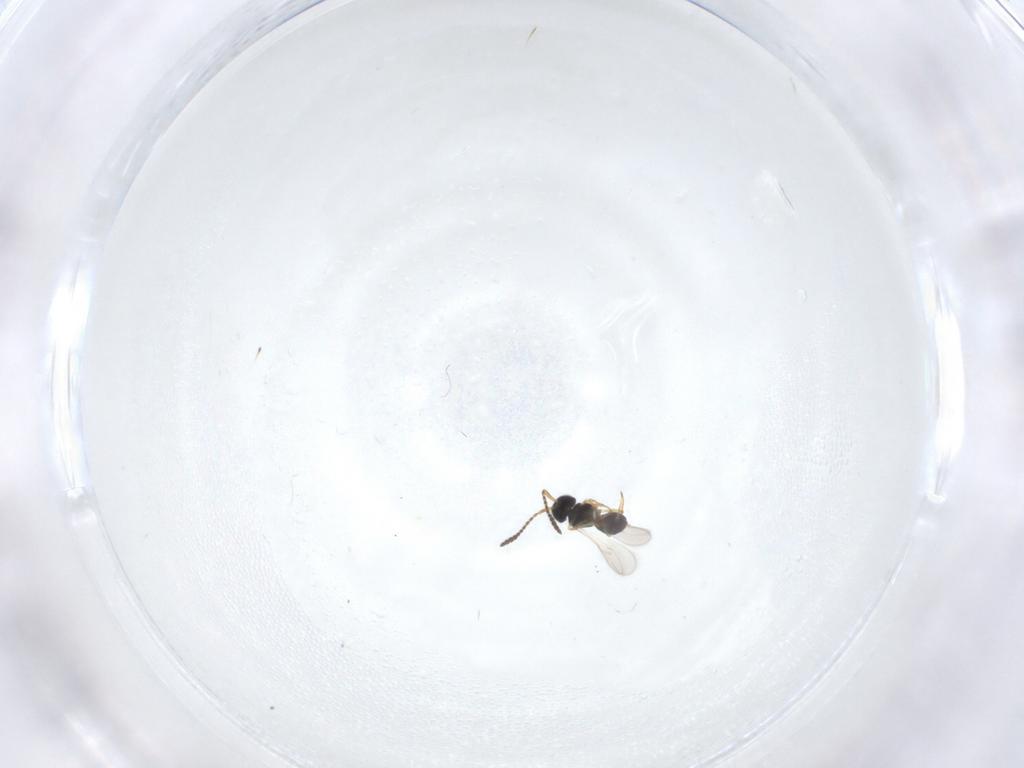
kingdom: Animalia
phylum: Arthropoda
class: Insecta
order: Hymenoptera
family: Scelionidae
